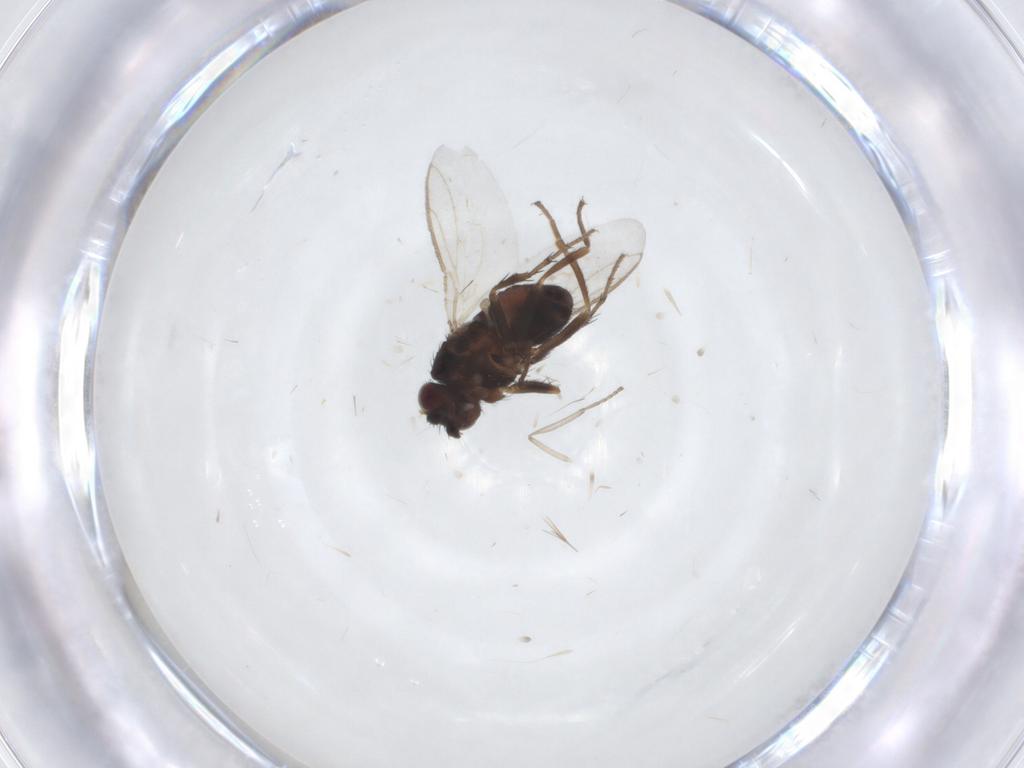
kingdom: Animalia
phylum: Arthropoda
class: Insecta
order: Diptera
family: Sphaeroceridae
